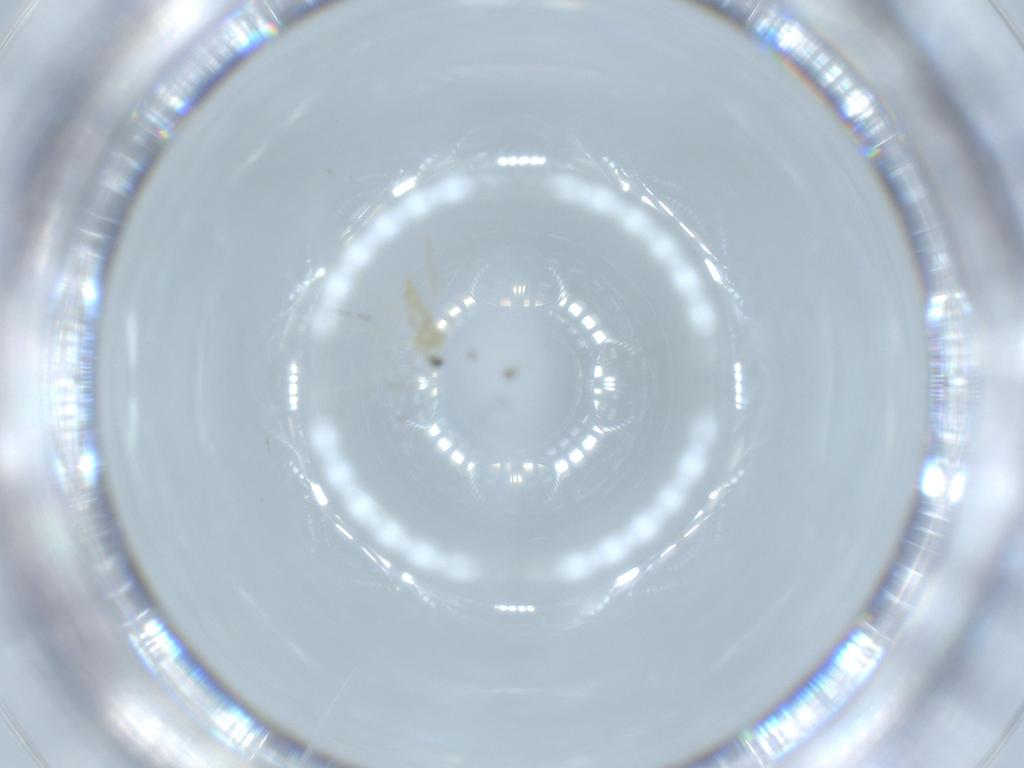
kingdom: Animalia
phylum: Arthropoda
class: Insecta
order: Diptera
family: Cecidomyiidae
